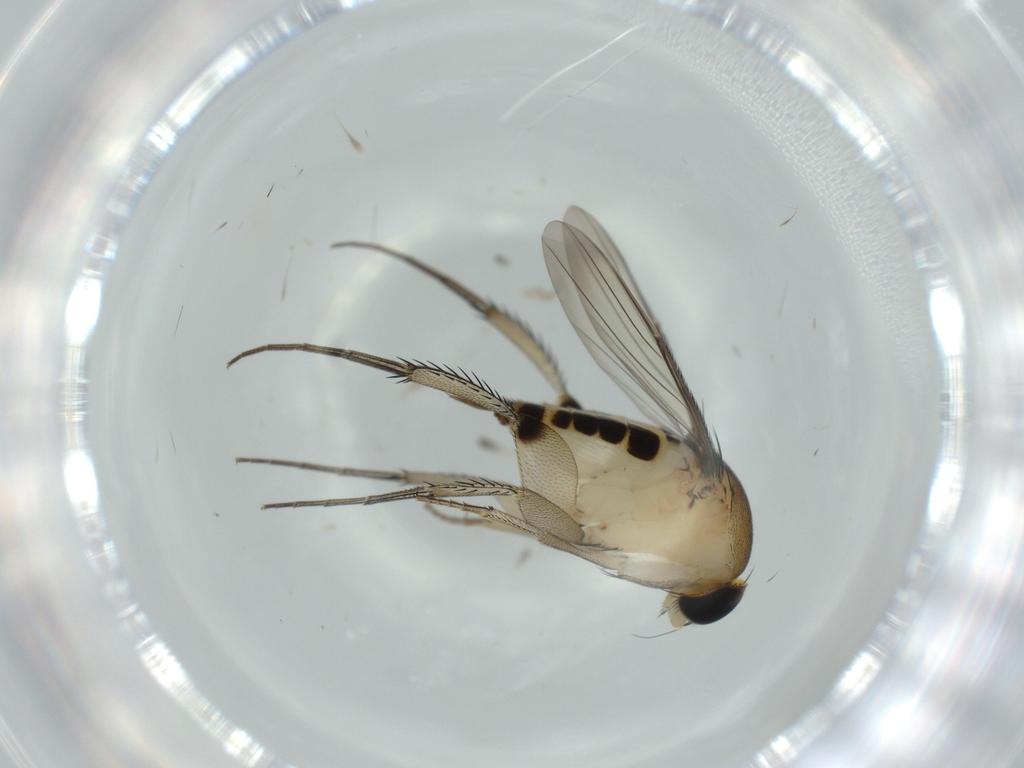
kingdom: Animalia
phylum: Arthropoda
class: Insecta
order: Diptera
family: Phoridae
